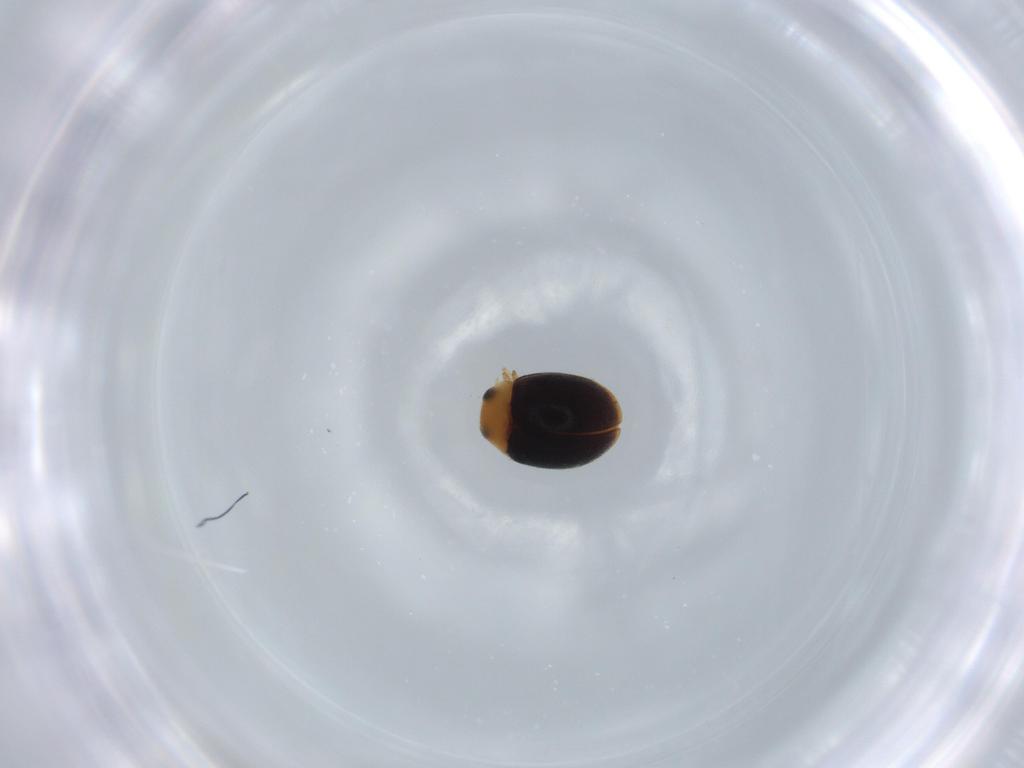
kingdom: Animalia
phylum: Arthropoda
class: Insecta
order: Coleoptera
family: Coccinellidae
